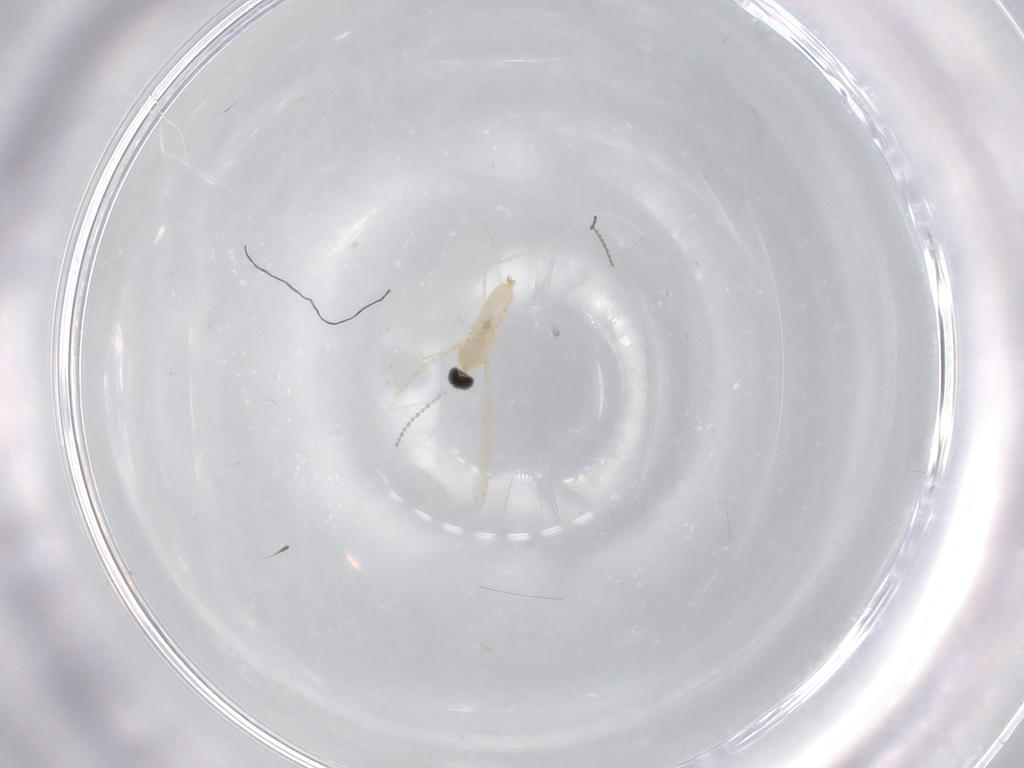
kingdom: Animalia
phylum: Arthropoda
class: Insecta
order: Diptera
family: Cecidomyiidae
